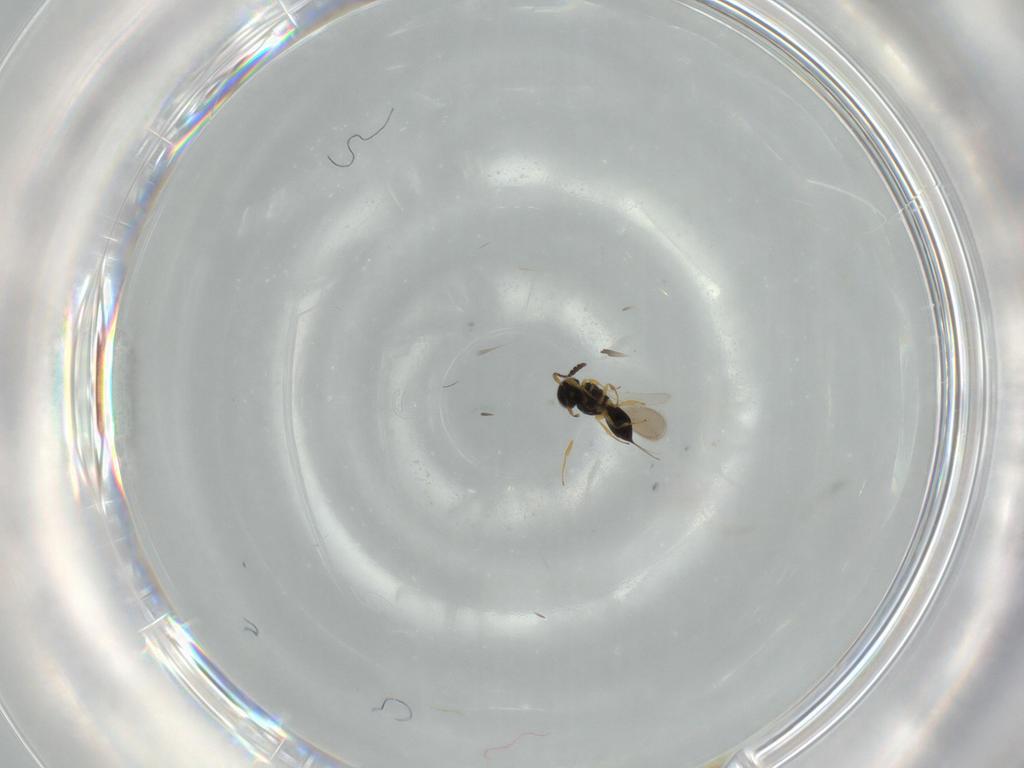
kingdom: Animalia
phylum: Arthropoda
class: Insecta
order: Hymenoptera
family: Scelionidae
